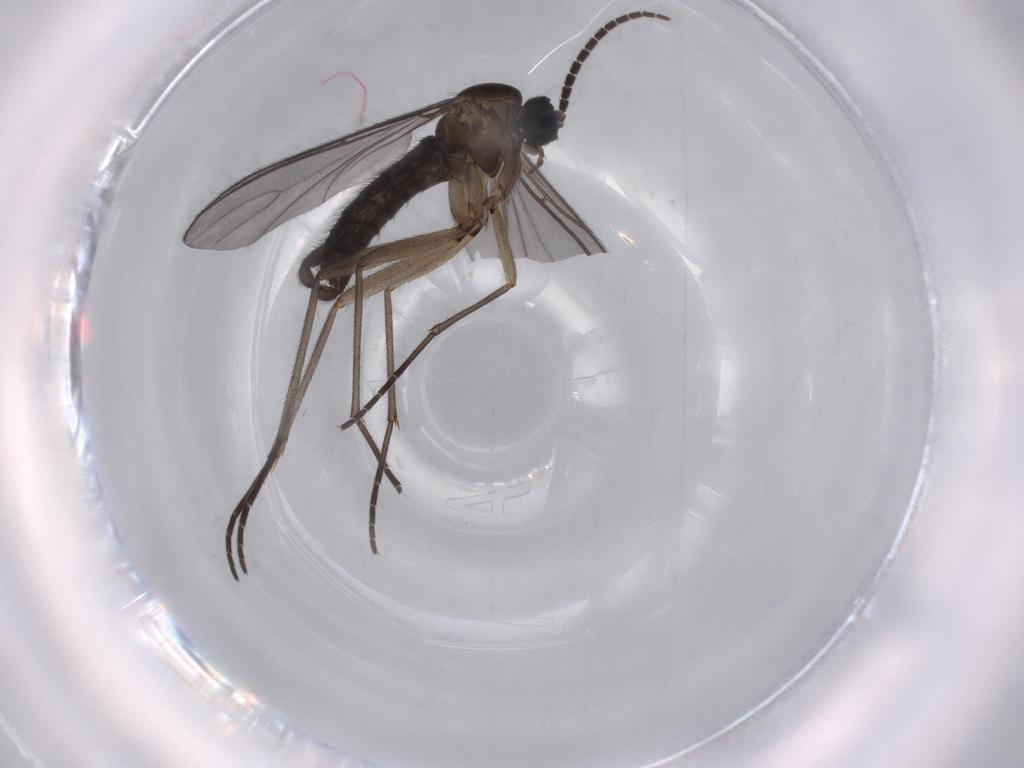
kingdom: Animalia
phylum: Arthropoda
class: Insecta
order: Diptera
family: Sciaridae
